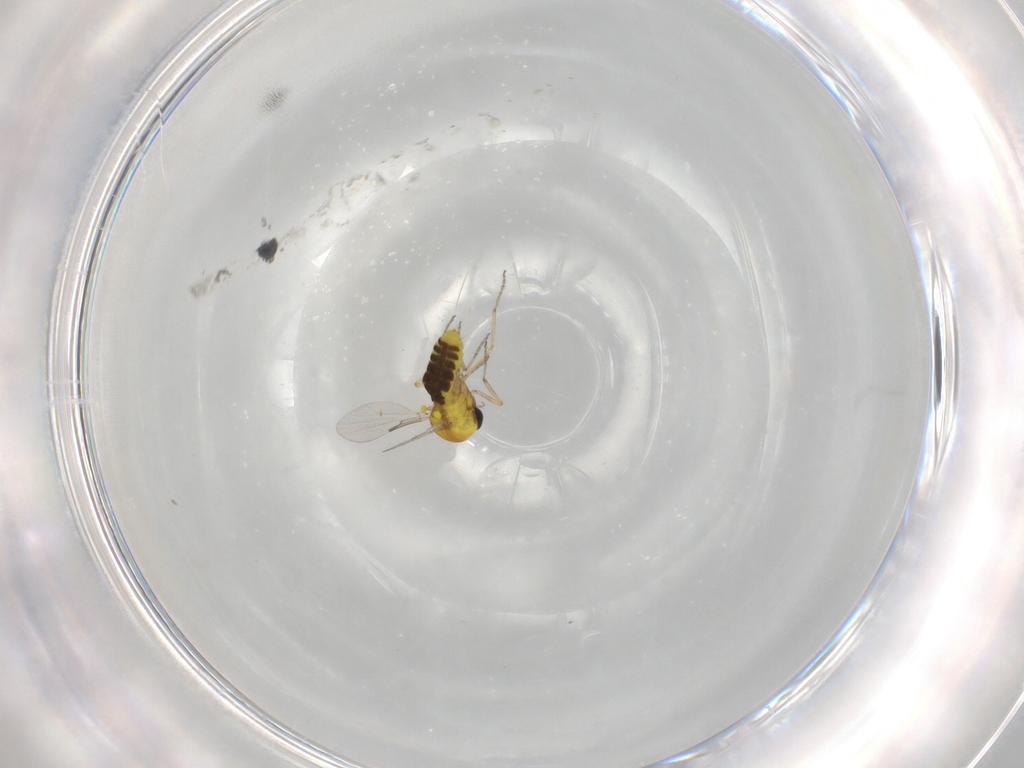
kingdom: Animalia
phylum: Arthropoda
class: Insecta
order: Diptera
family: Ceratopogonidae
